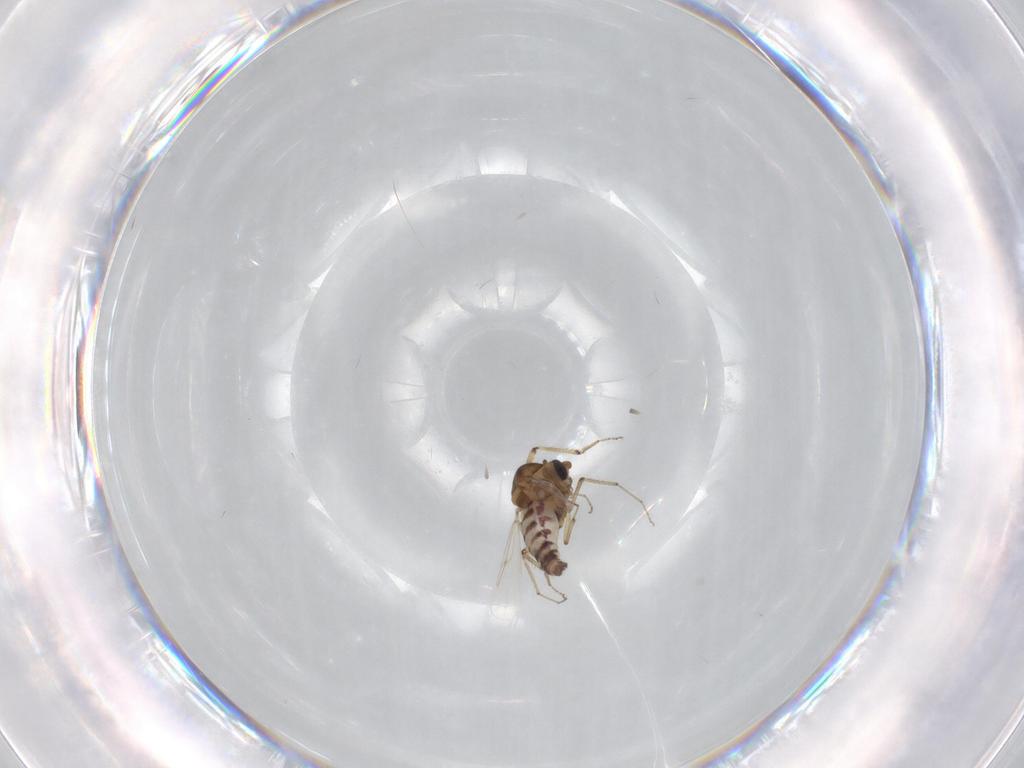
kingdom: Animalia
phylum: Arthropoda
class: Insecta
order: Diptera
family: Ceratopogonidae
